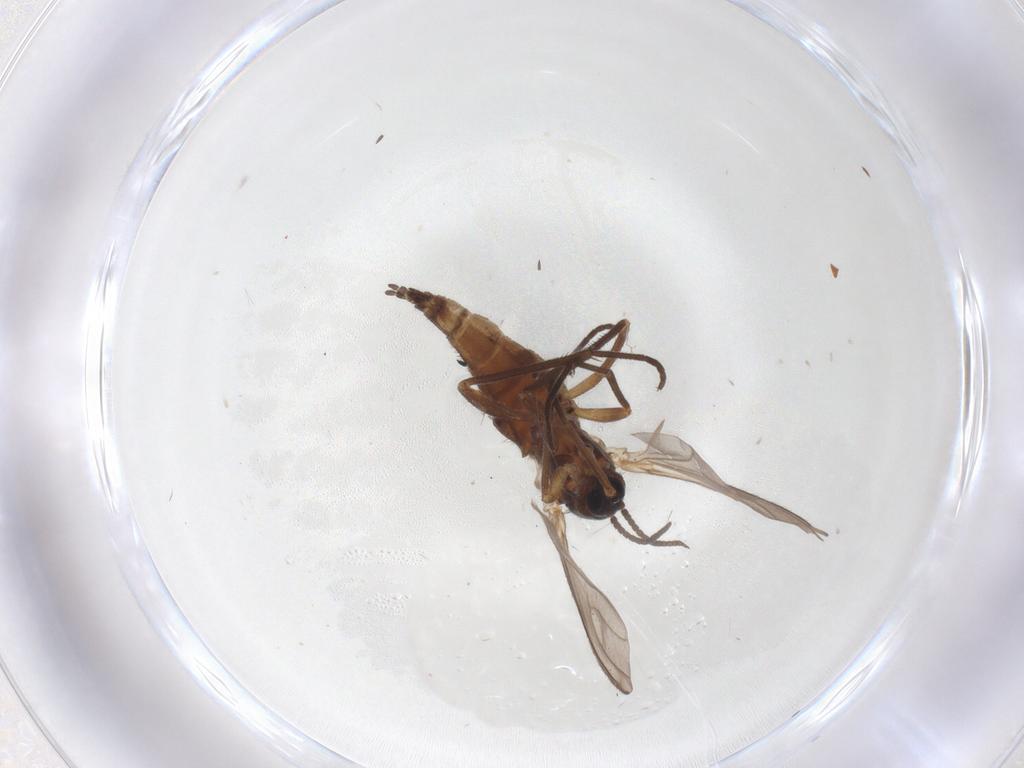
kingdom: Animalia
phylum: Arthropoda
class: Insecta
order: Diptera
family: Sciaridae
